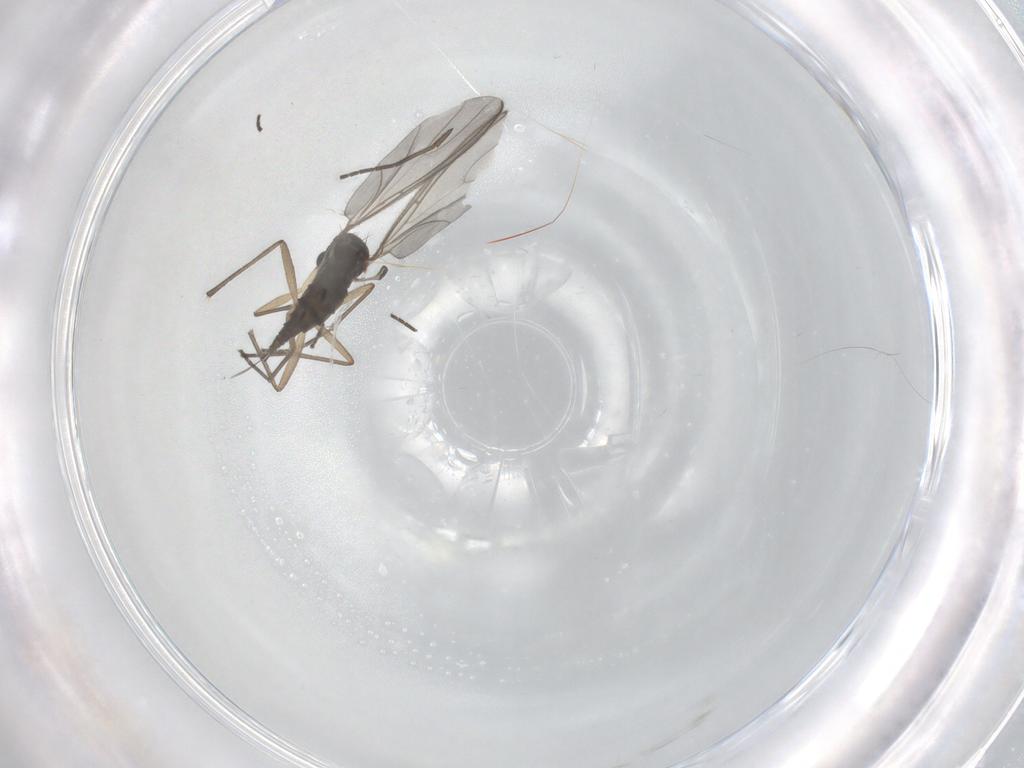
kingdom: Animalia
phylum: Arthropoda
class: Insecta
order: Diptera
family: Sciaridae
